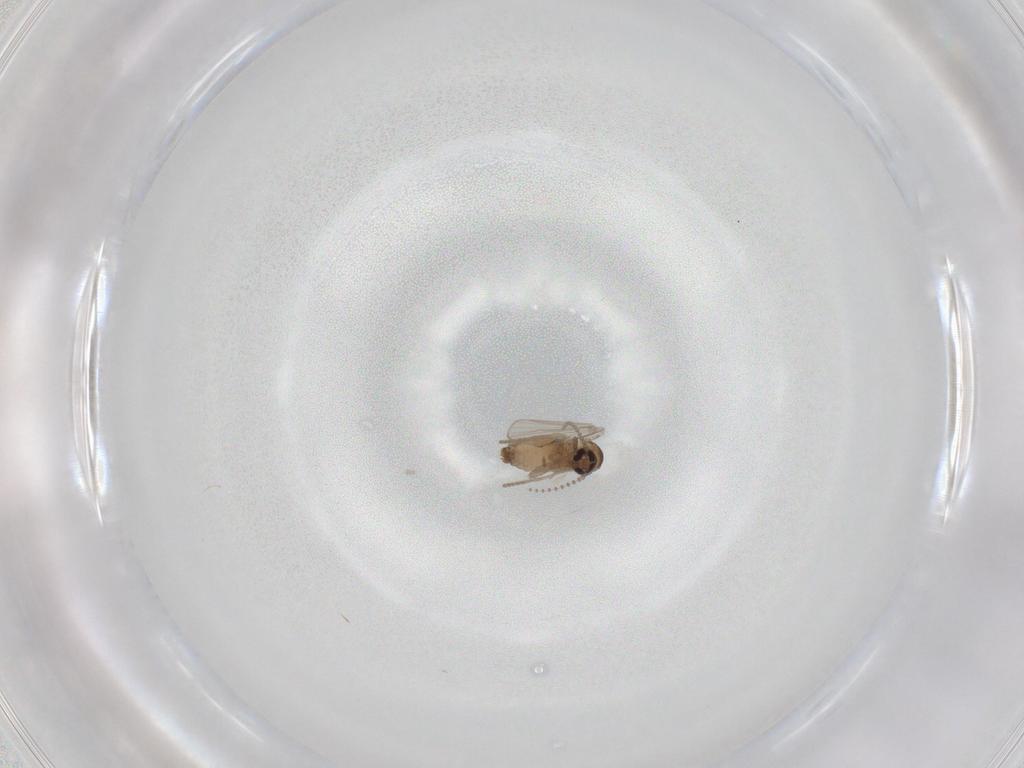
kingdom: Animalia
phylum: Arthropoda
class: Insecta
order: Diptera
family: Psychodidae
